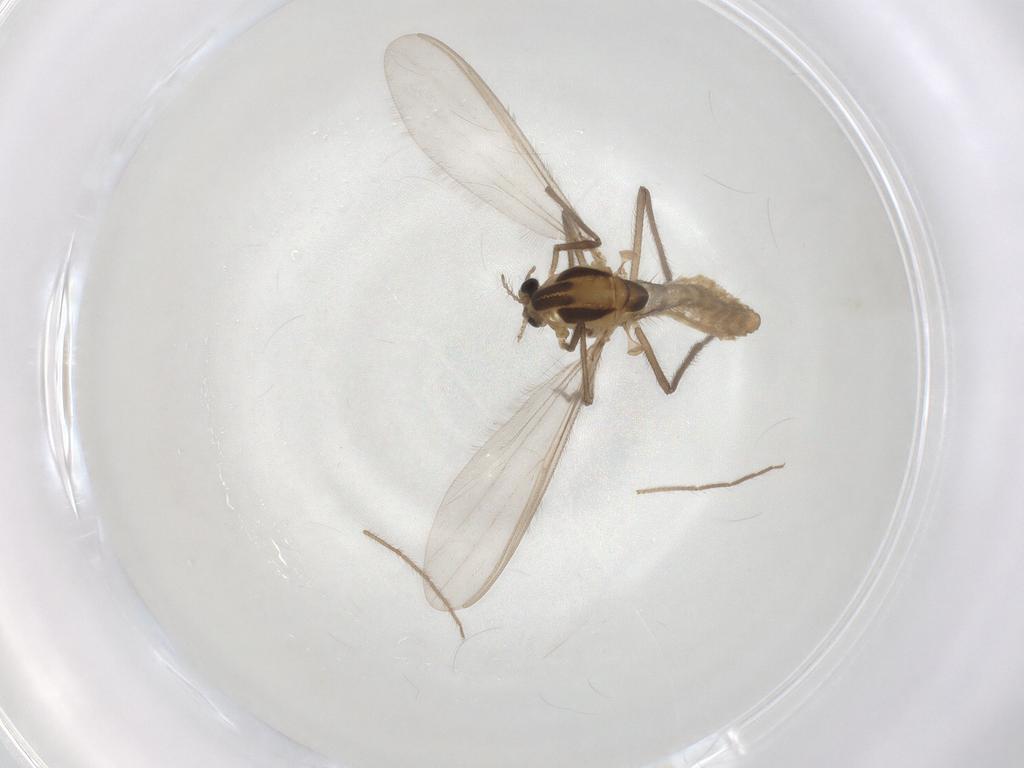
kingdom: Animalia
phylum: Arthropoda
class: Insecta
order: Diptera
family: Chironomidae
